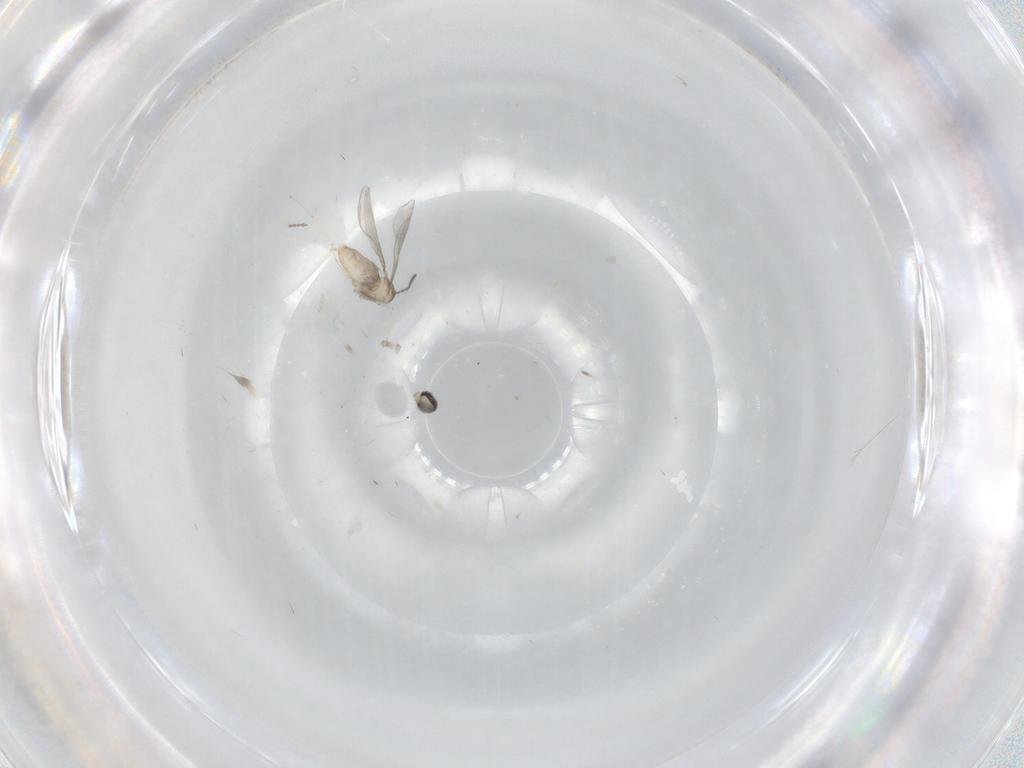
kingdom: Animalia
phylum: Arthropoda
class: Insecta
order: Diptera
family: Ceratopogonidae
